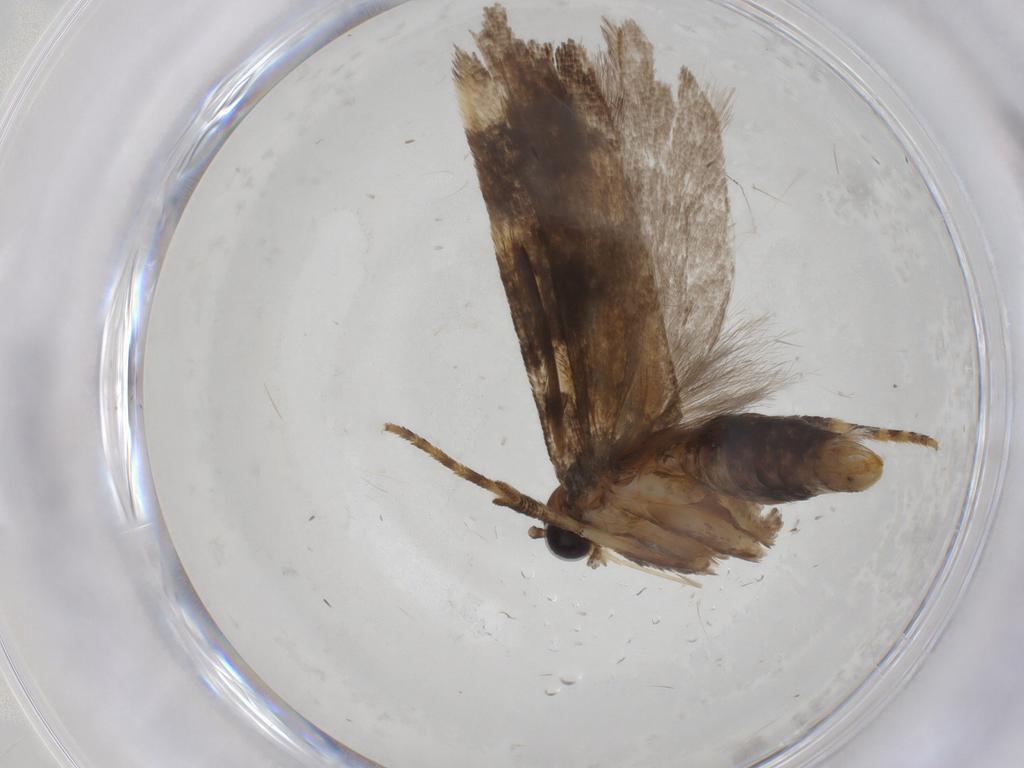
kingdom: Animalia
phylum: Arthropoda
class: Insecta
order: Lepidoptera
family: Gelechiidae
